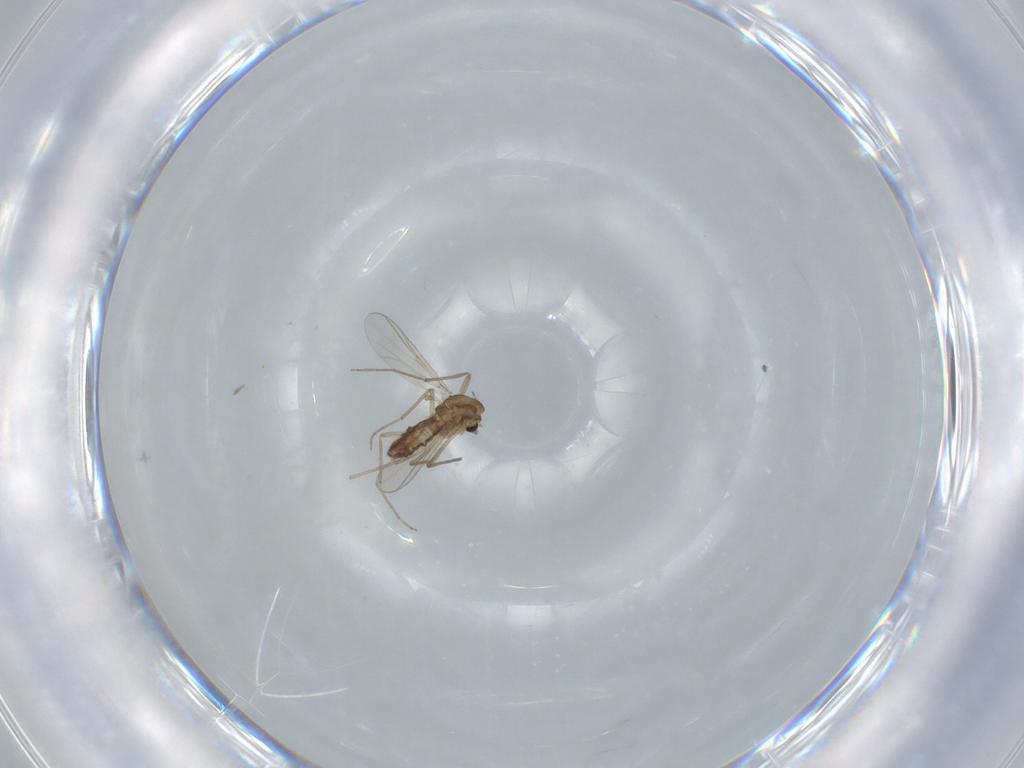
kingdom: Animalia
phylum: Arthropoda
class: Insecta
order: Diptera
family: Chironomidae
